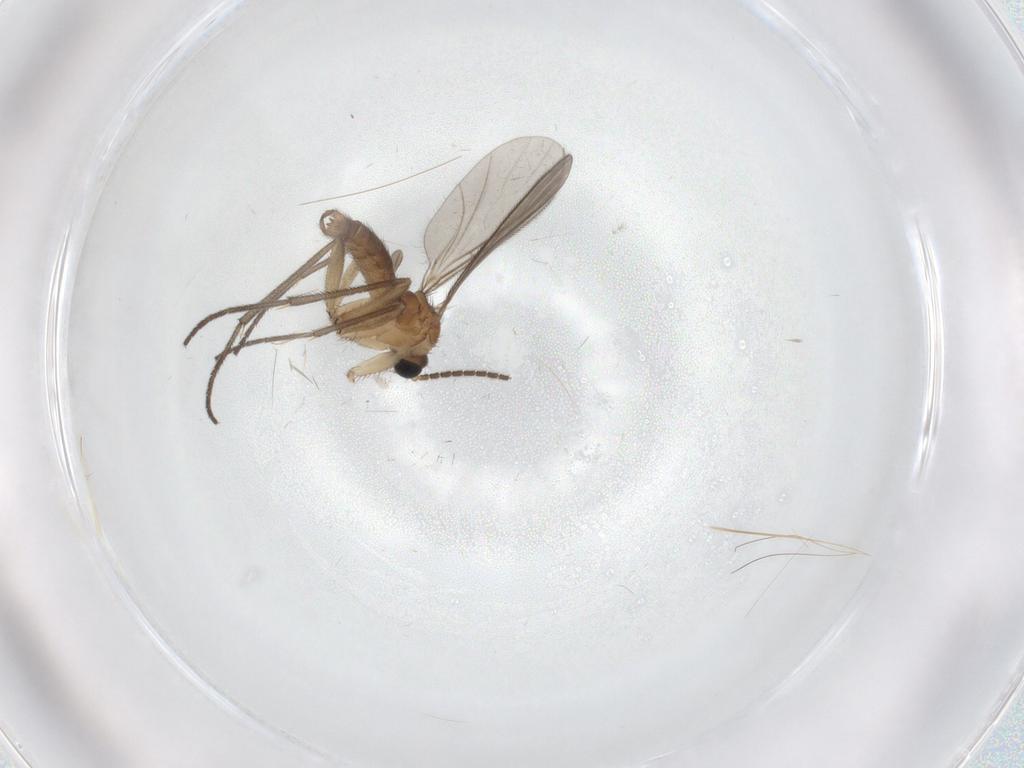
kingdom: Animalia
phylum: Arthropoda
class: Insecta
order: Diptera
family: Sciaridae
